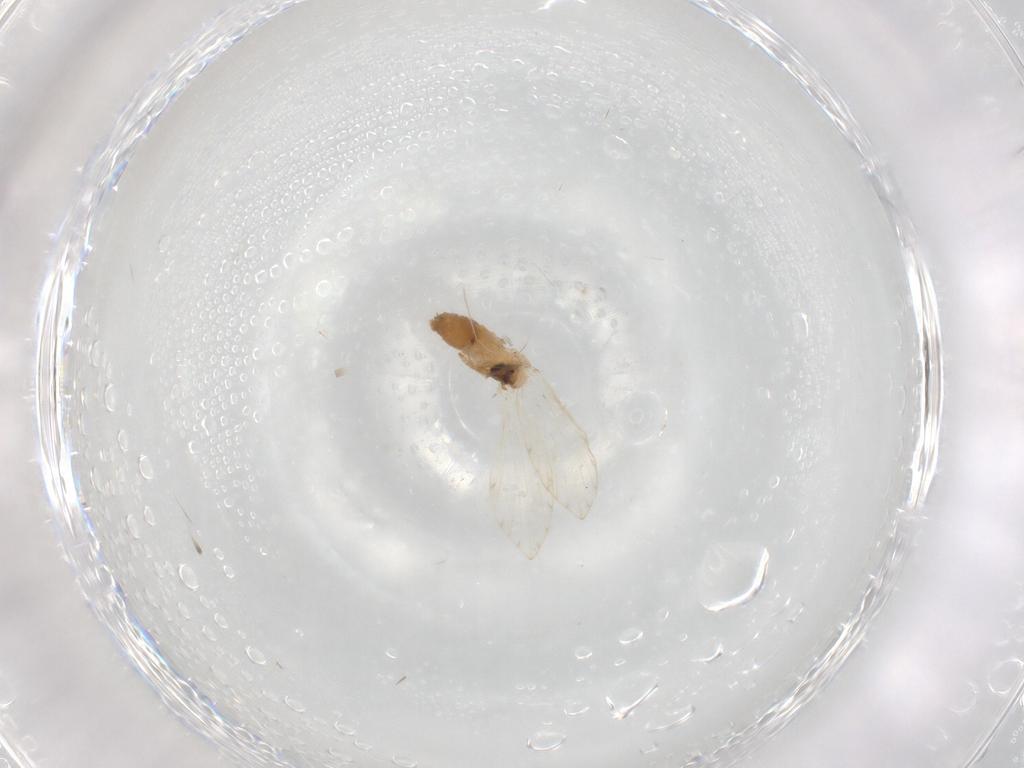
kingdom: Animalia
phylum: Arthropoda
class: Insecta
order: Diptera
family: Psychodidae
